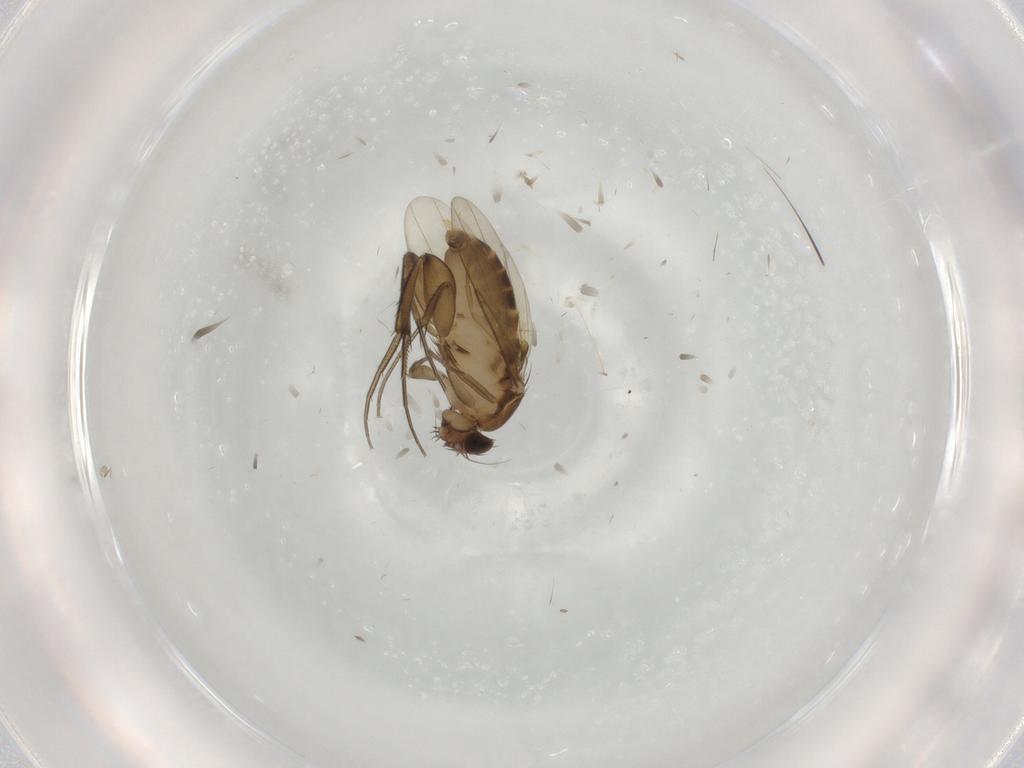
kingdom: Animalia
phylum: Arthropoda
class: Insecta
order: Diptera
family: Phoridae
